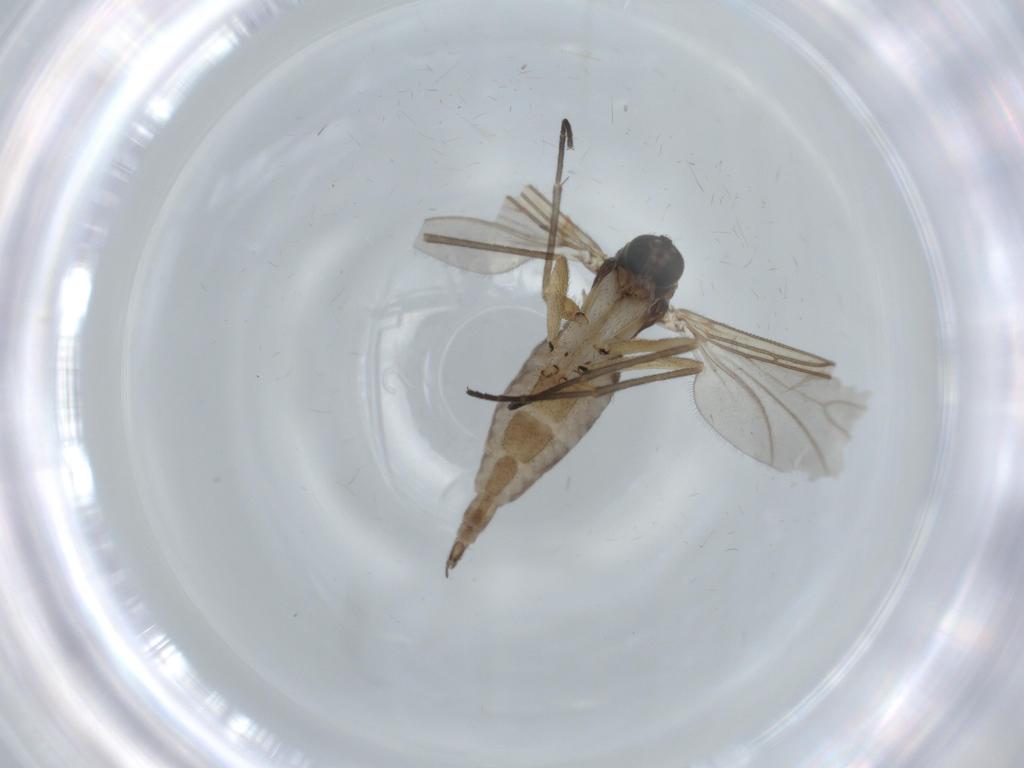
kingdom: Animalia
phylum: Arthropoda
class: Insecta
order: Diptera
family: Sciaridae
